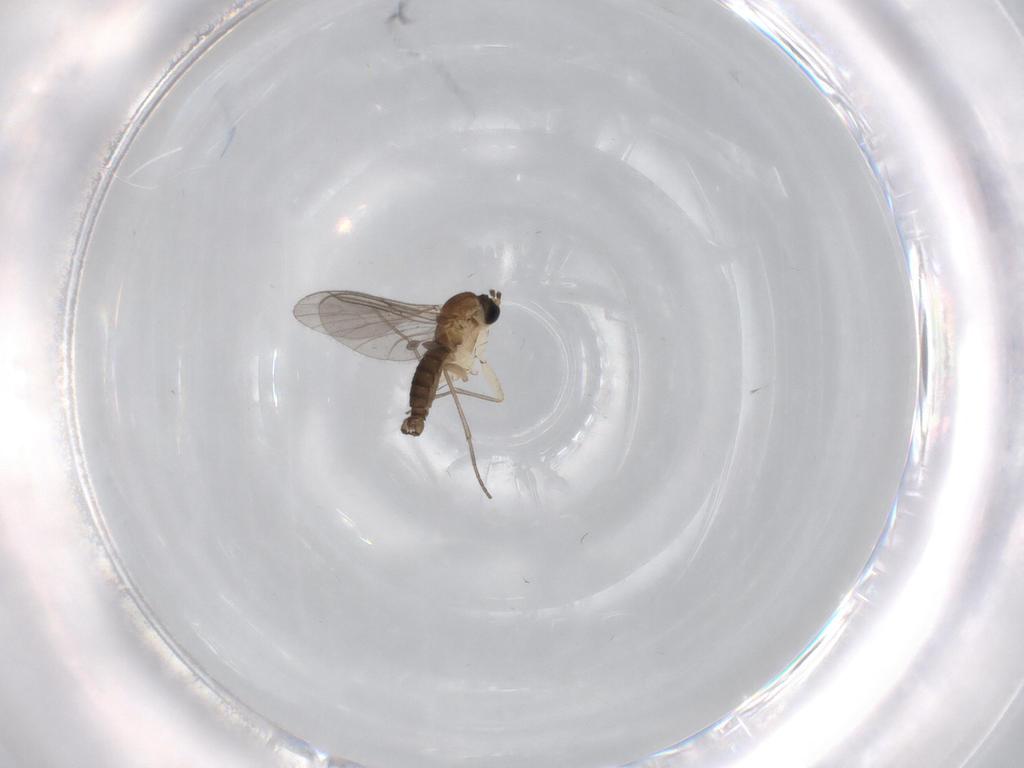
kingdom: Animalia
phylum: Arthropoda
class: Insecta
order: Diptera
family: Sciaridae
